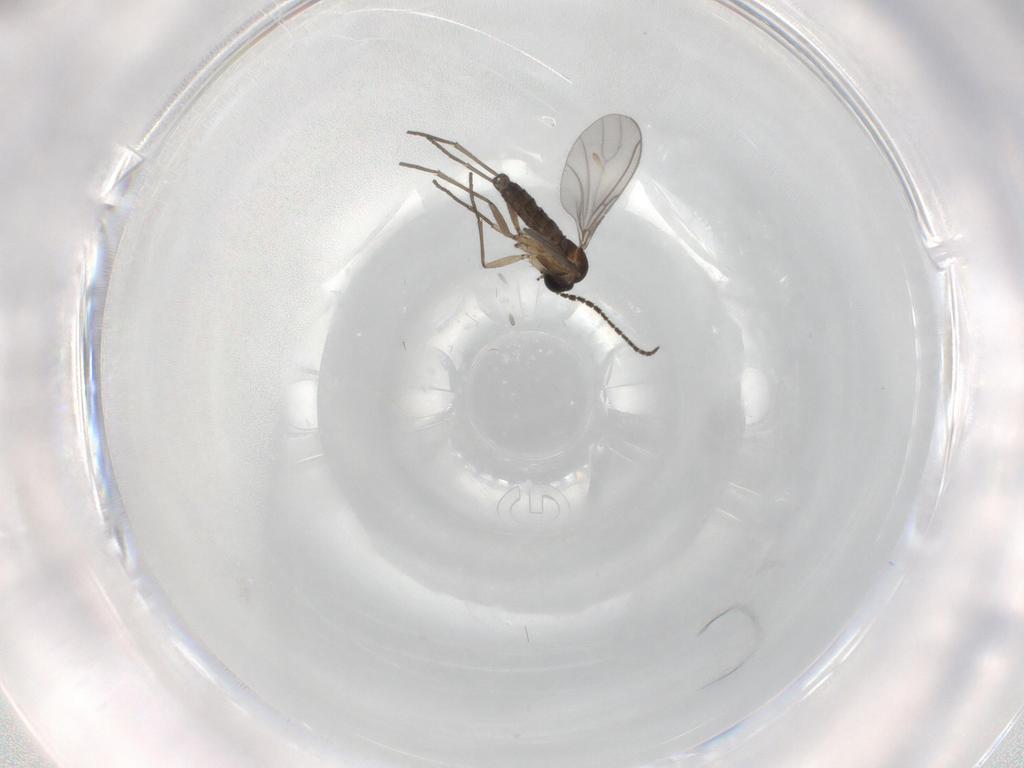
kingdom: Animalia
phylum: Arthropoda
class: Insecta
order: Diptera
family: Sciaridae
